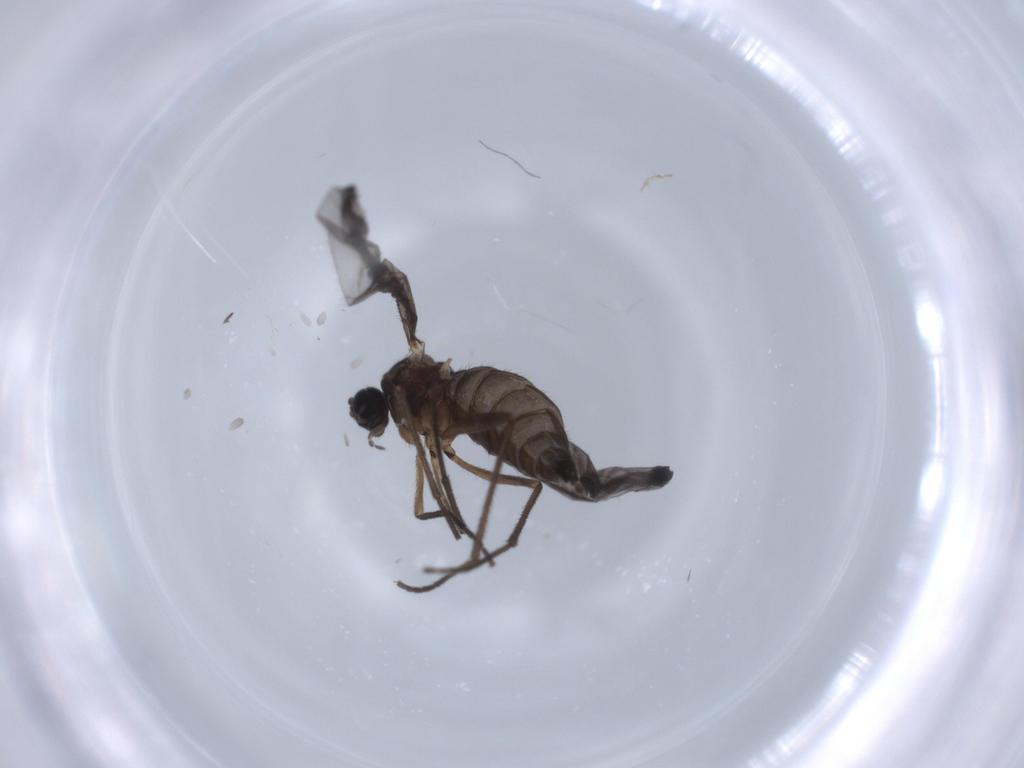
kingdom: Animalia
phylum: Arthropoda
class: Insecta
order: Diptera
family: Sciaridae
